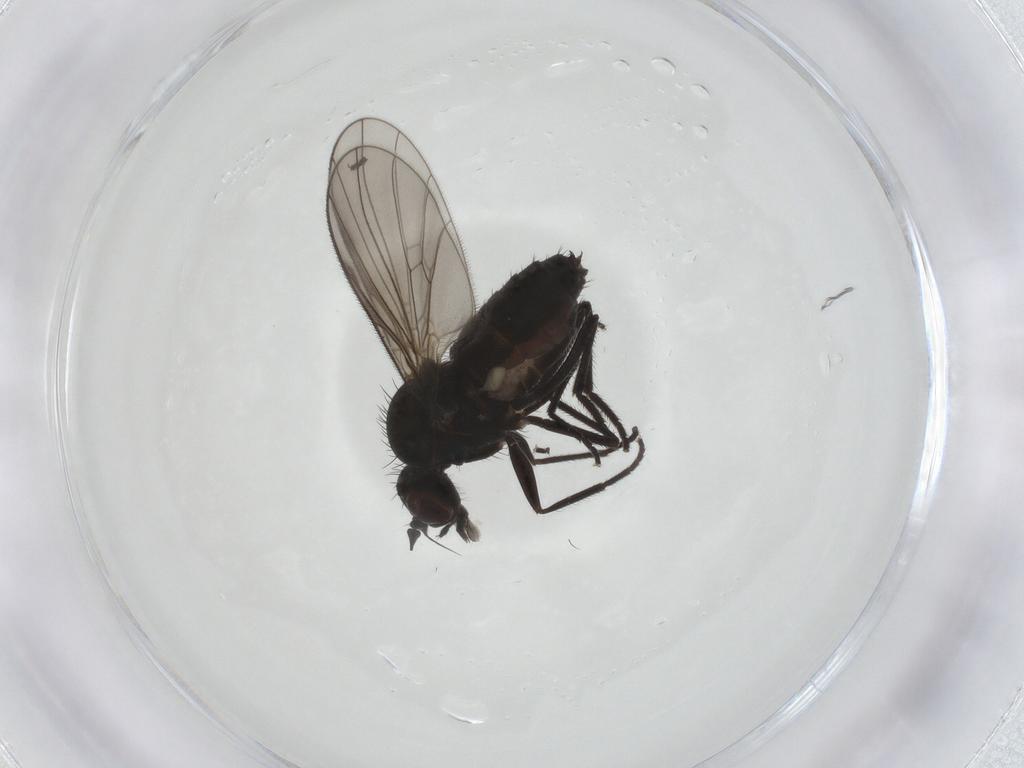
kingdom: Animalia
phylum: Arthropoda
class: Insecta
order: Diptera
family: Dolichopodidae
